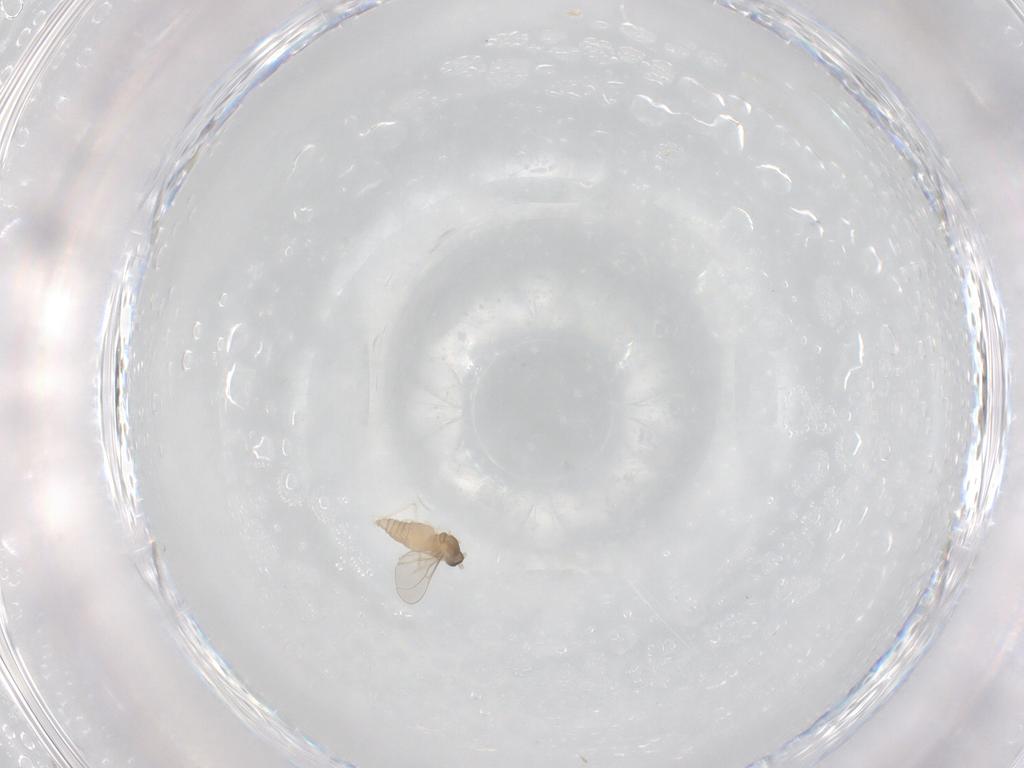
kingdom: Animalia
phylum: Arthropoda
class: Insecta
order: Diptera
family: Cecidomyiidae
